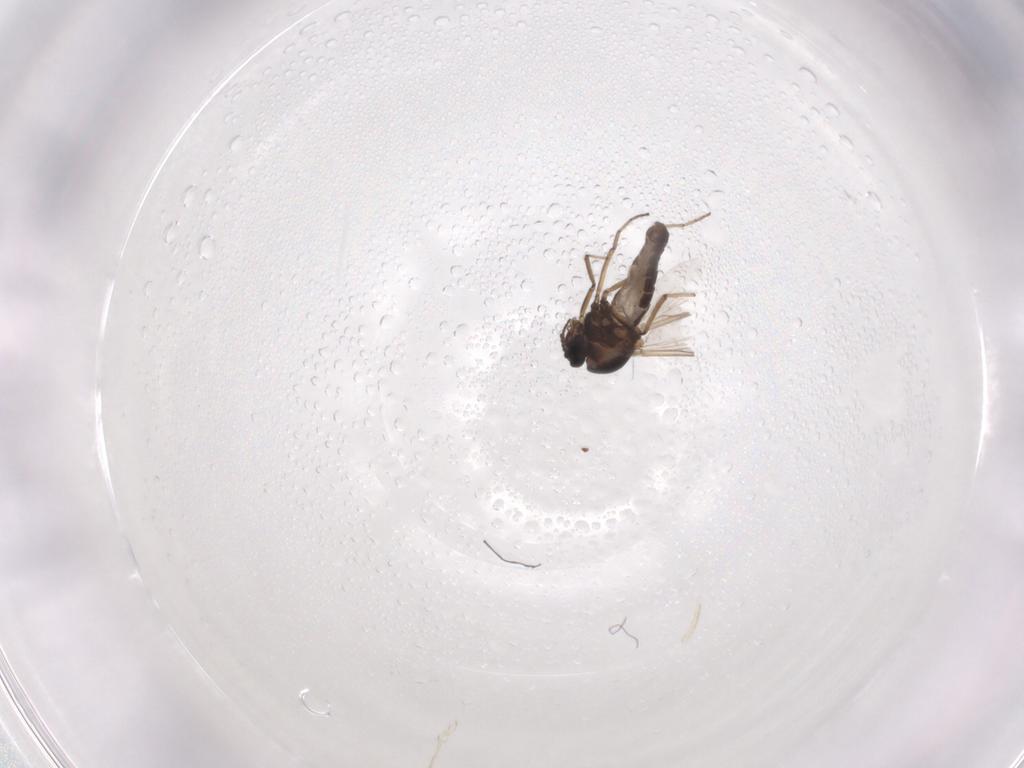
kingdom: Animalia
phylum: Arthropoda
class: Insecta
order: Diptera
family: Ceratopogonidae
